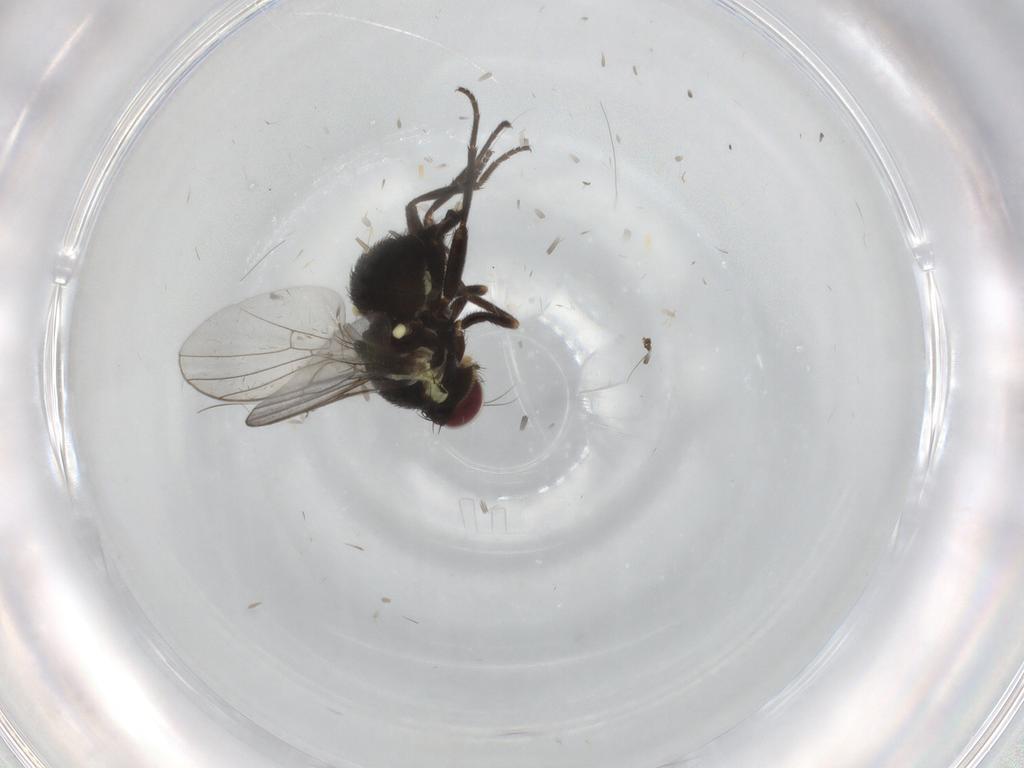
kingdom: Animalia
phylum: Arthropoda
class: Insecta
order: Diptera
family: Agromyzidae
